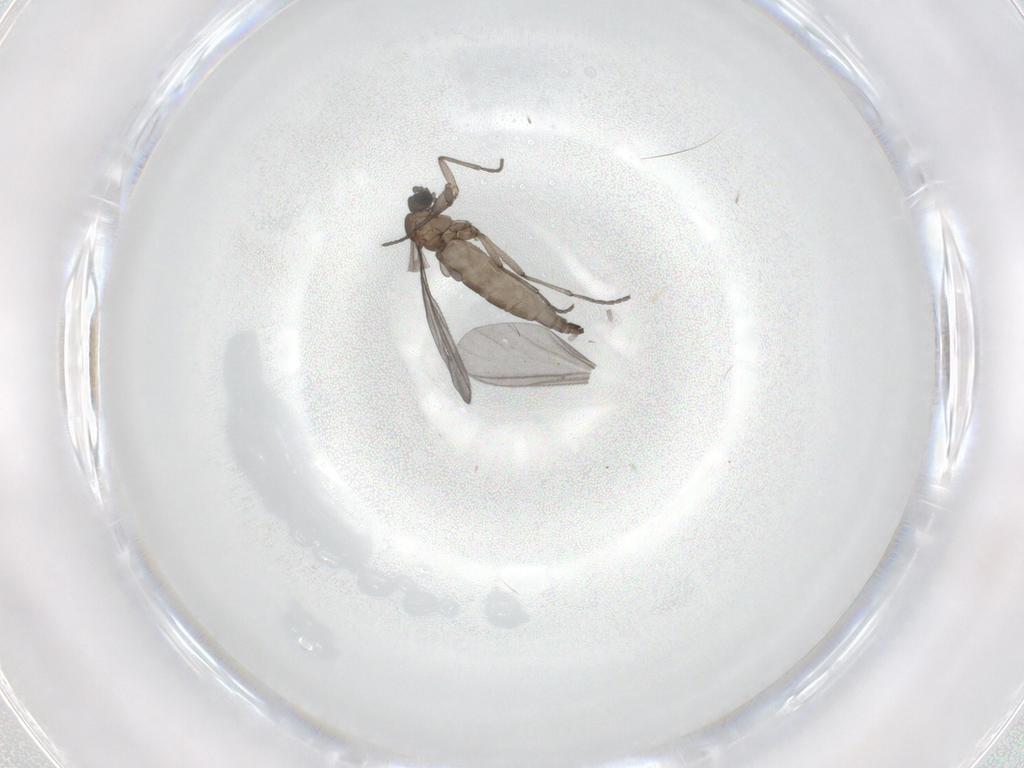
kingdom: Animalia
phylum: Arthropoda
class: Insecta
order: Diptera
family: Sciaridae
